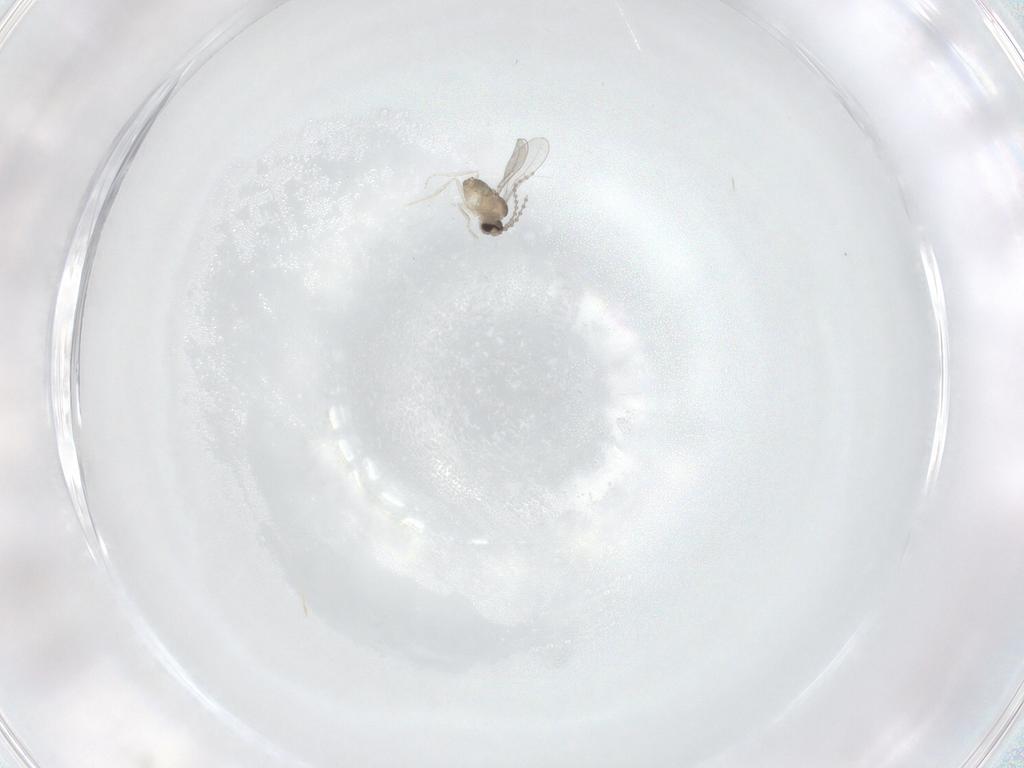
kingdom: Animalia
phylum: Arthropoda
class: Insecta
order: Diptera
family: Cecidomyiidae
